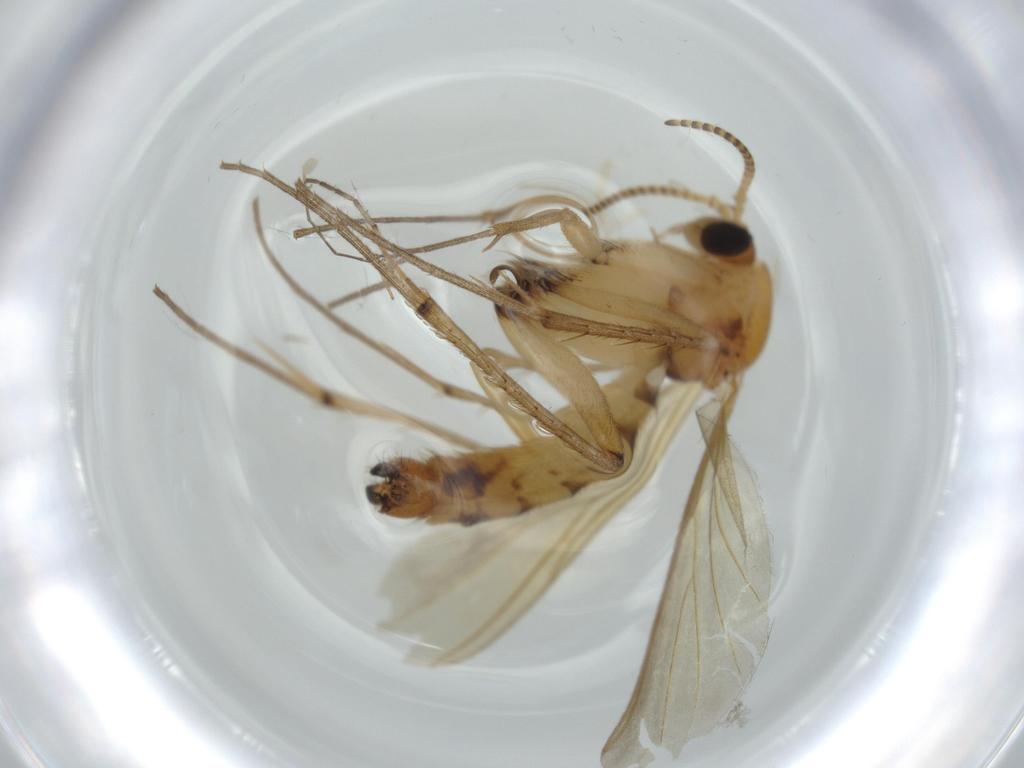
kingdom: Animalia
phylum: Arthropoda
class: Insecta
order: Diptera
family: Mycetophilidae
